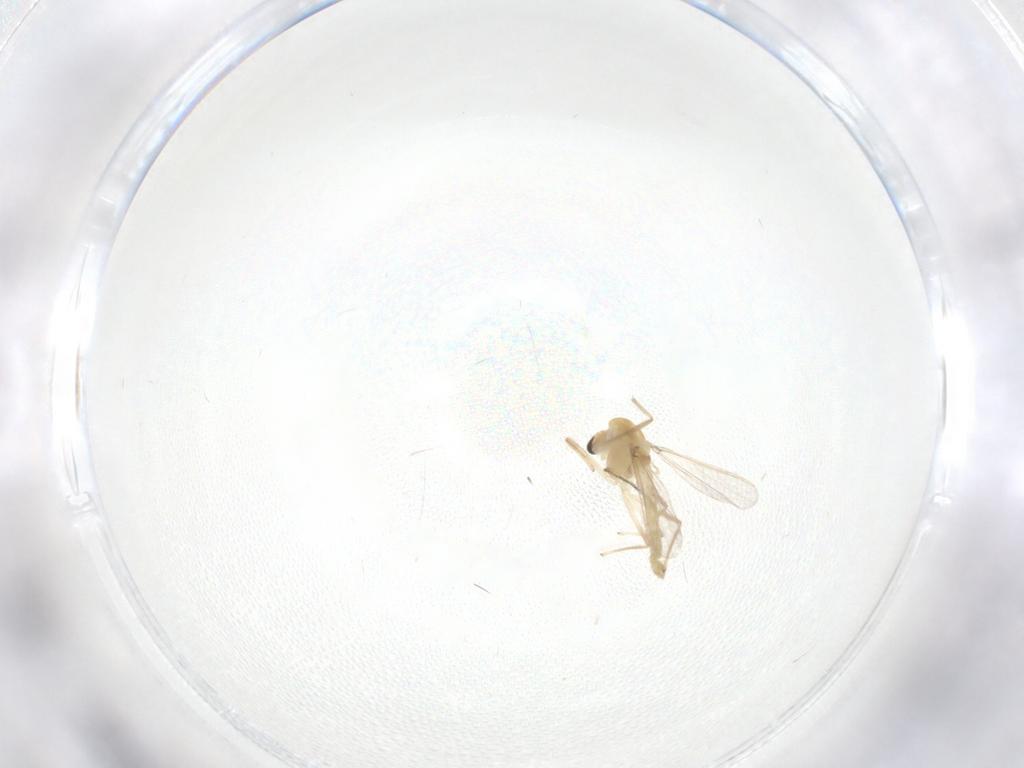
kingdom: Animalia
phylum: Arthropoda
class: Insecta
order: Diptera
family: Chironomidae
